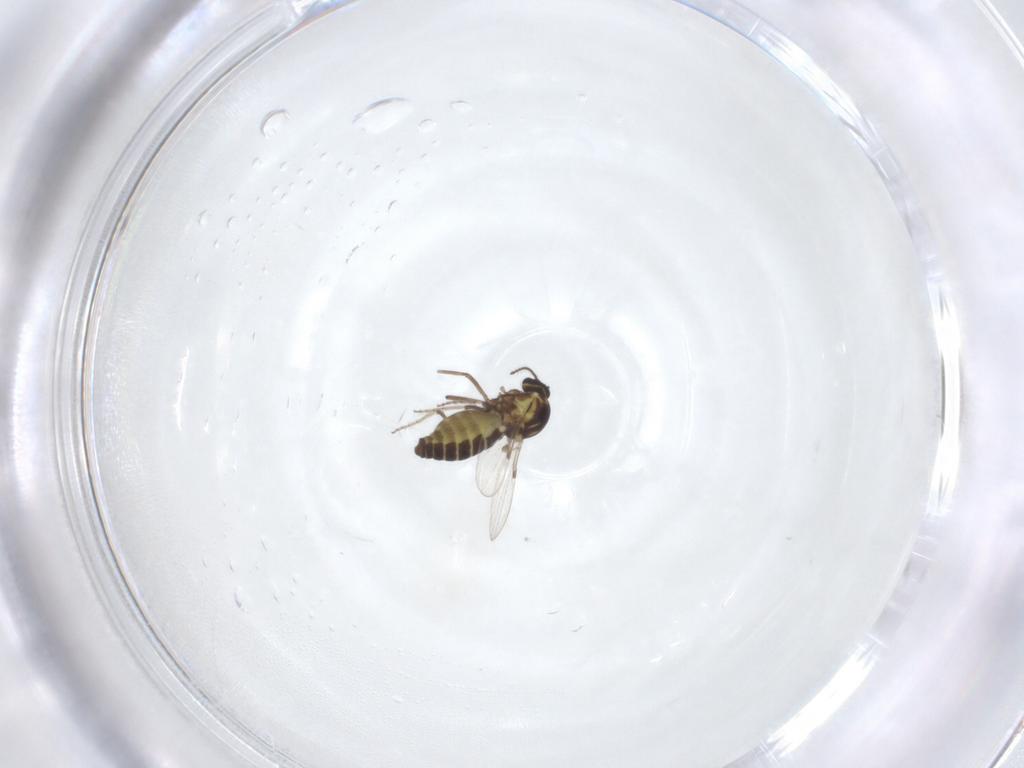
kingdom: Animalia
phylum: Arthropoda
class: Insecta
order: Diptera
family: Ceratopogonidae
